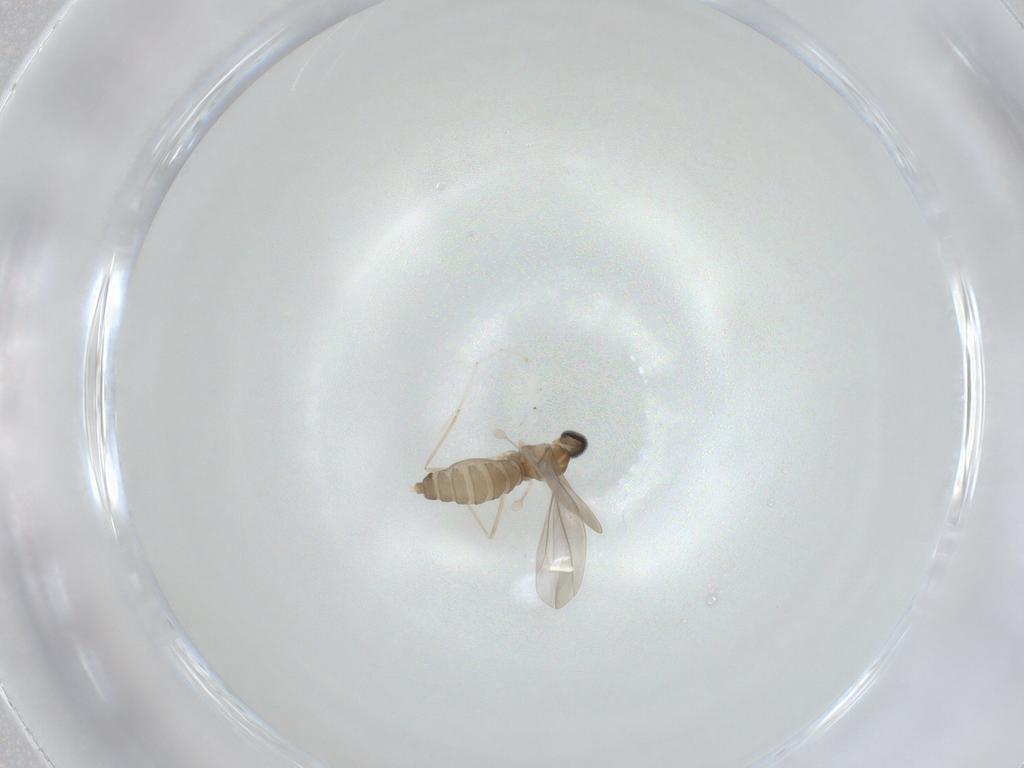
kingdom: Animalia
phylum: Arthropoda
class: Insecta
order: Diptera
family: Cecidomyiidae
